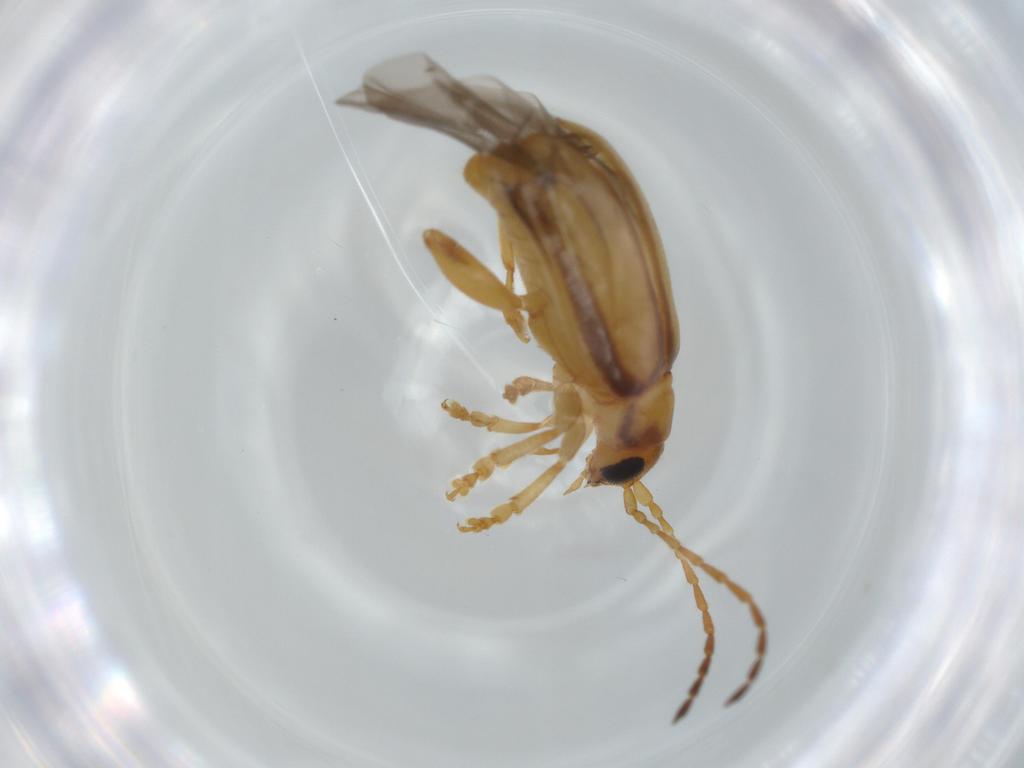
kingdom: Animalia
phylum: Arthropoda
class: Insecta
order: Coleoptera
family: Chrysomelidae
